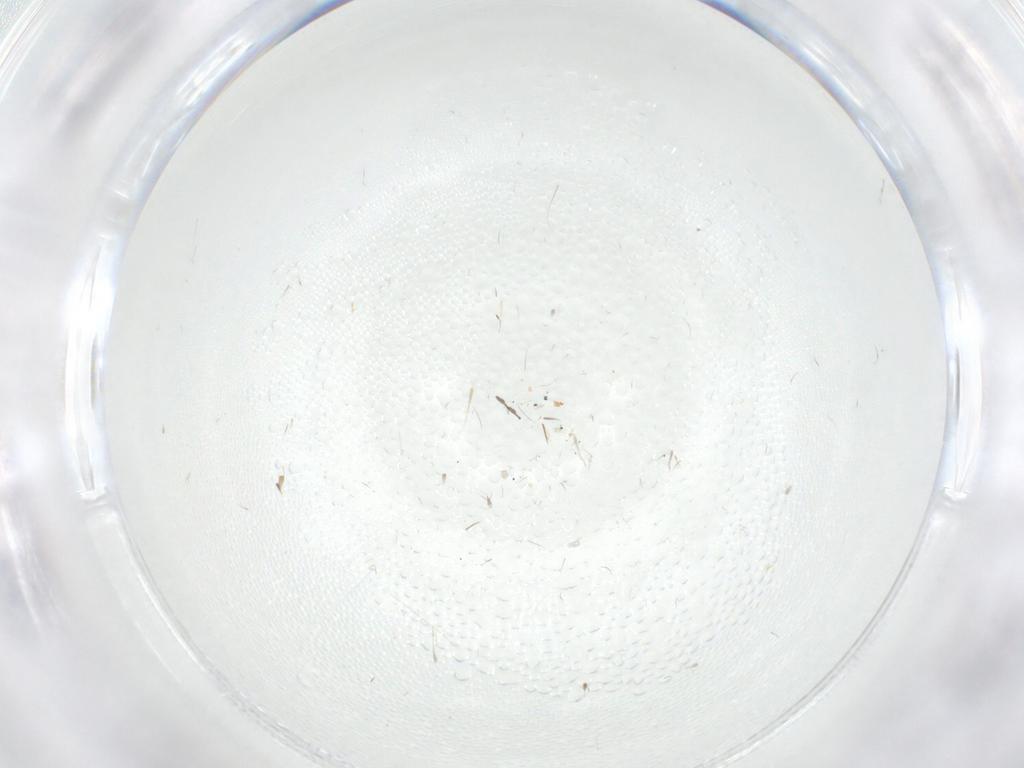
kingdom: Animalia
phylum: Arthropoda
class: Insecta
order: Diptera
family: Cecidomyiidae
